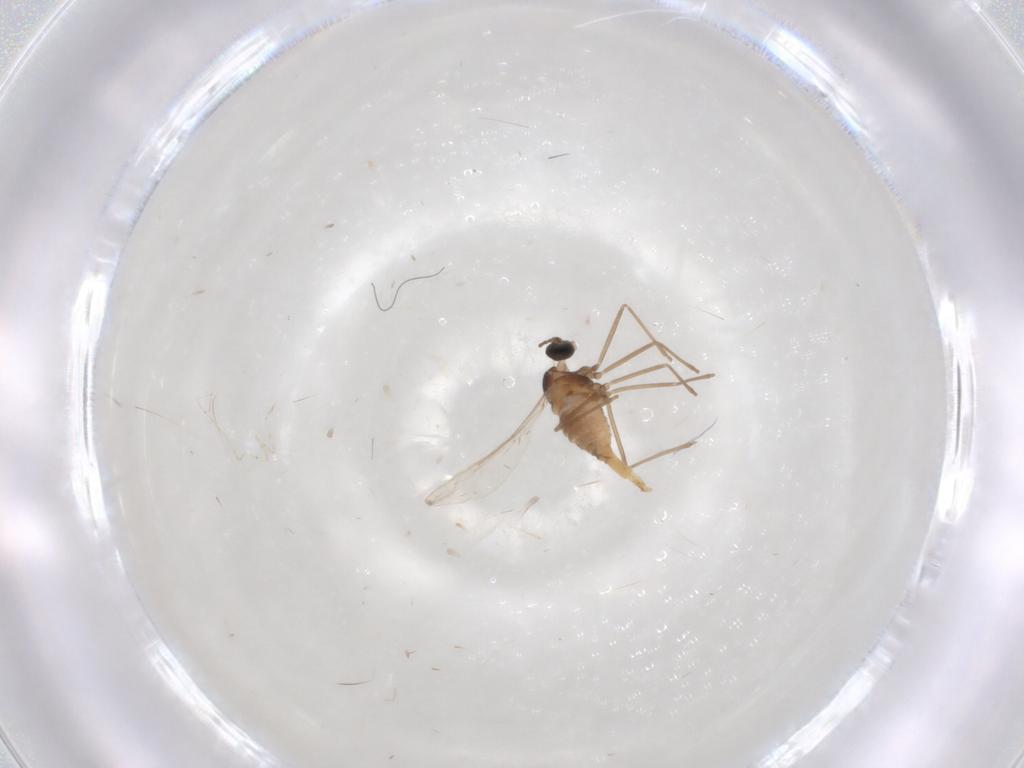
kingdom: Animalia
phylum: Arthropoda
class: Insecta
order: Diptera
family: Cecidomyiidae
